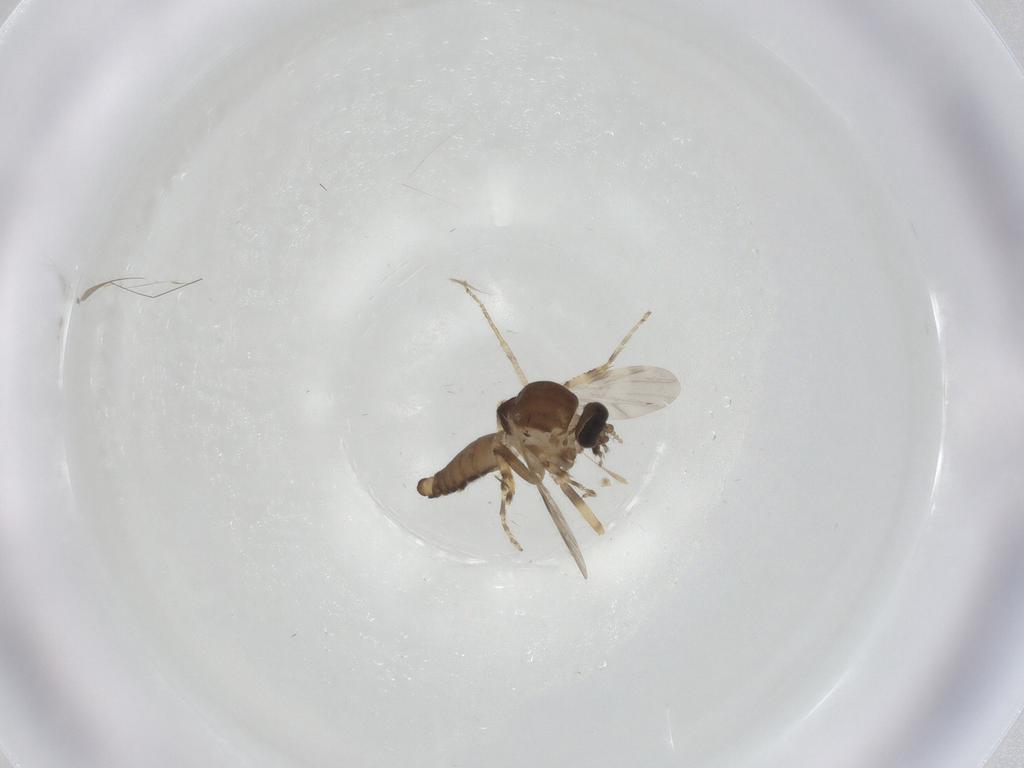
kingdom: Animalia
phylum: Arthropoda
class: Insecta
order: Diptera
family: Ceratopogonidae
